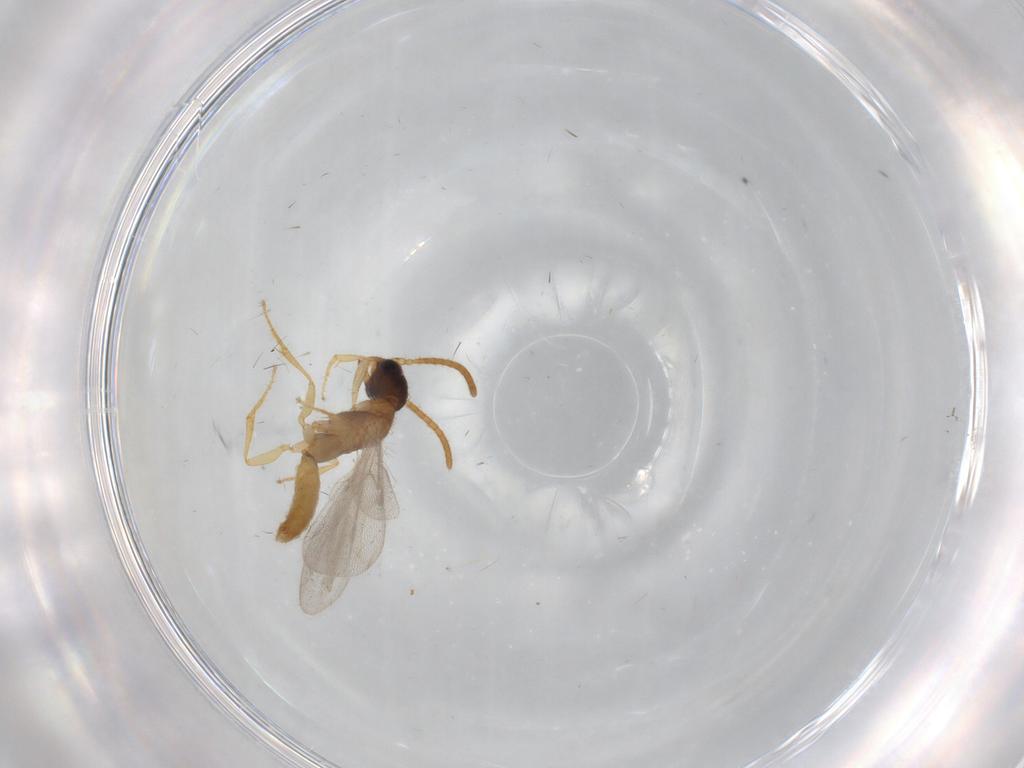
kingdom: Animalia
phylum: Arthropoda
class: Insecta
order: Hymenoptera
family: Bethylidae
